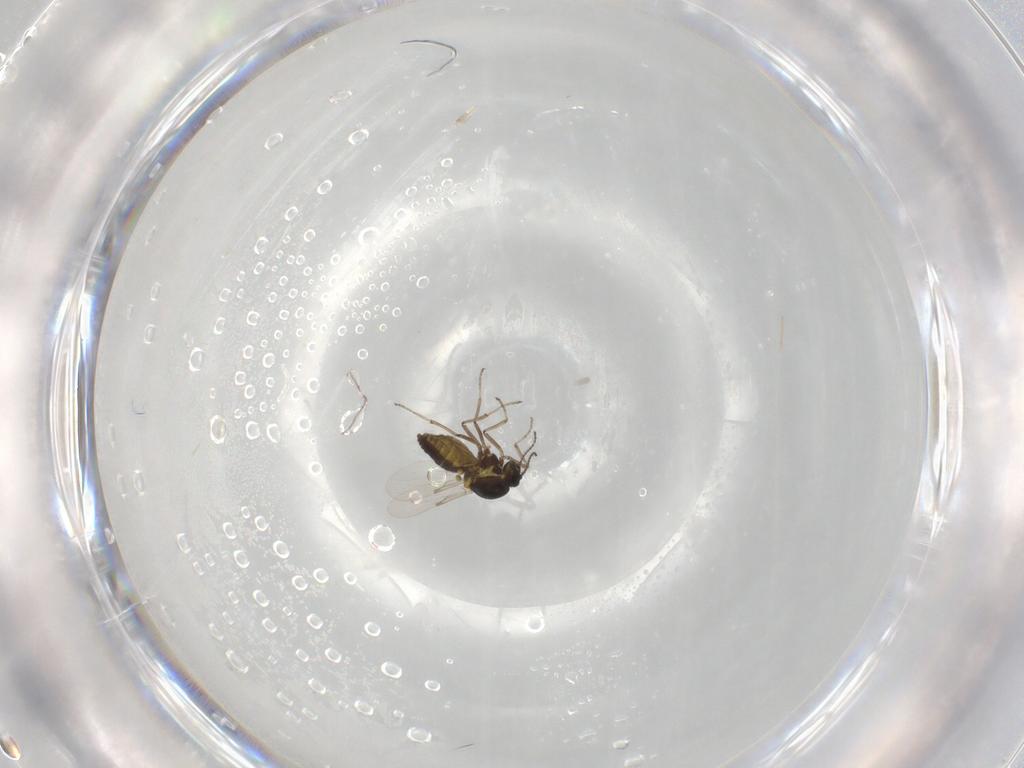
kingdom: Animalia
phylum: Arthropoda
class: Insecta
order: Diptera
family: Ceratopogonidae
